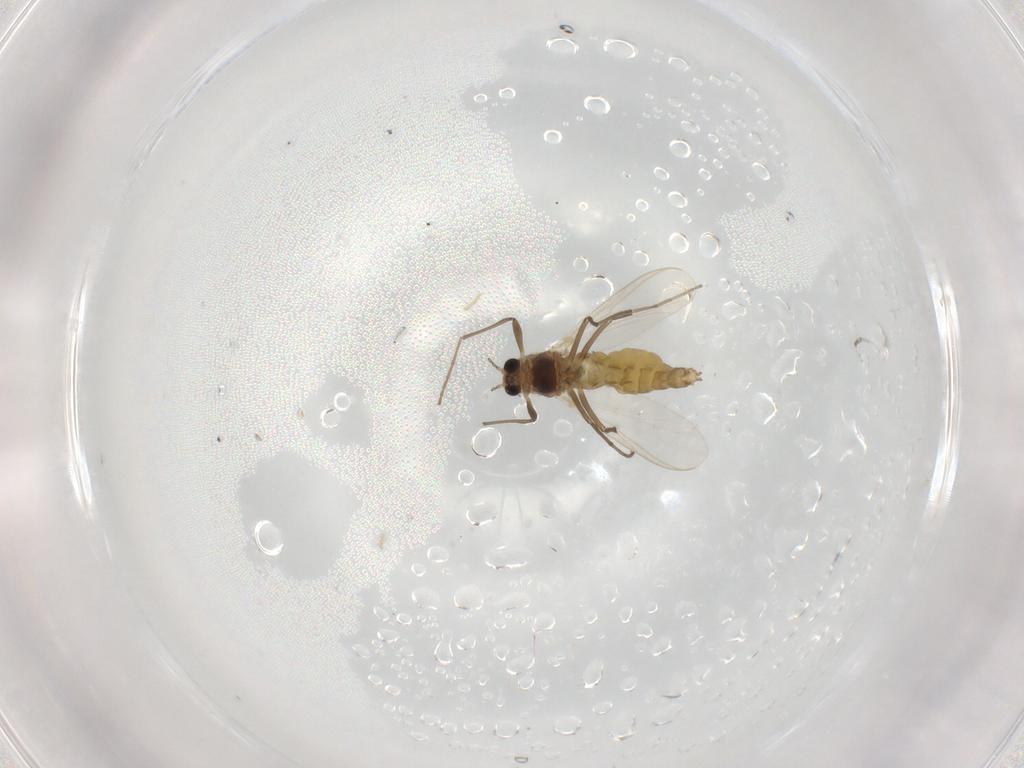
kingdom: Animalia
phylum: Arthropoda
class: Insecta
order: Diptera
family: Chironomidae
